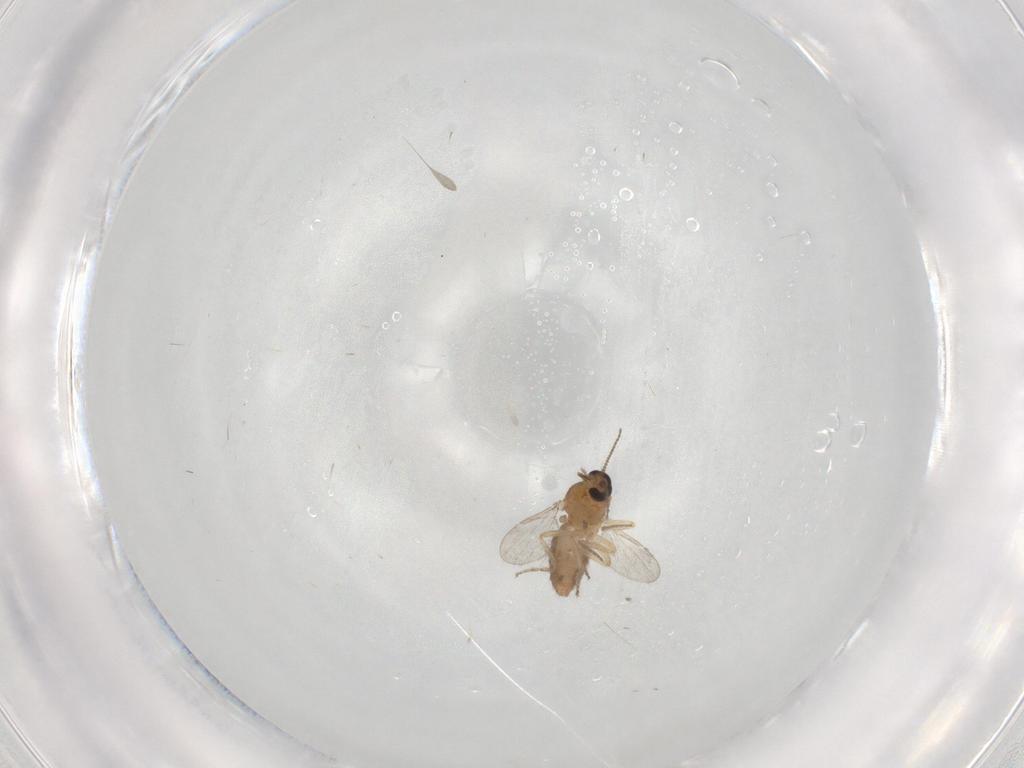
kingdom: Animalia
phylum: Arthropoda
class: Insecta
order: Diptera
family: Ceratopogonidae
